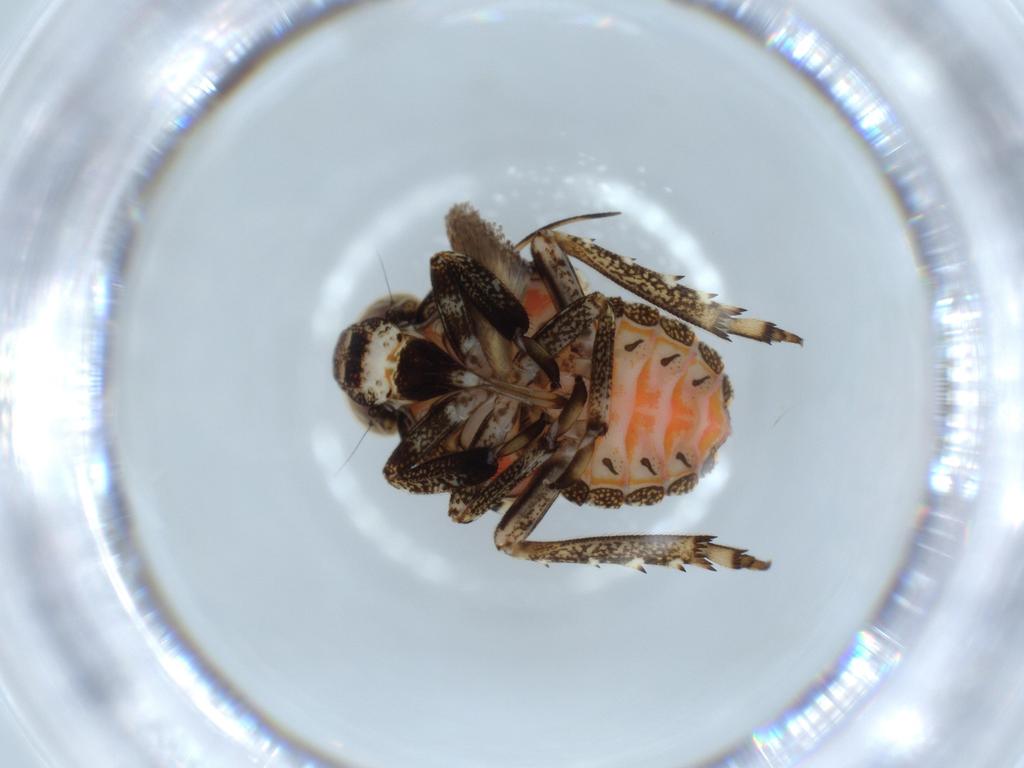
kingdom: Animalia
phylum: Arthropoda
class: Insecta
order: Hemiptera
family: Issidae
